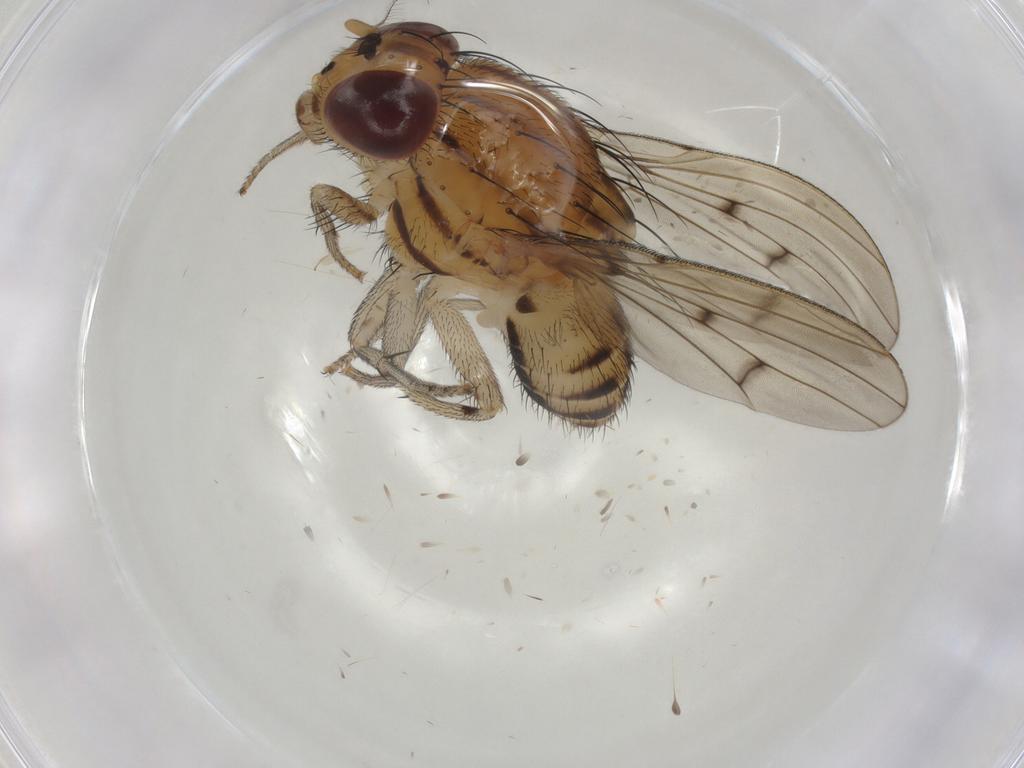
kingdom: Animalia
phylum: Arthropoda
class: Insecta
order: Diptera
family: Lauxaniidae
